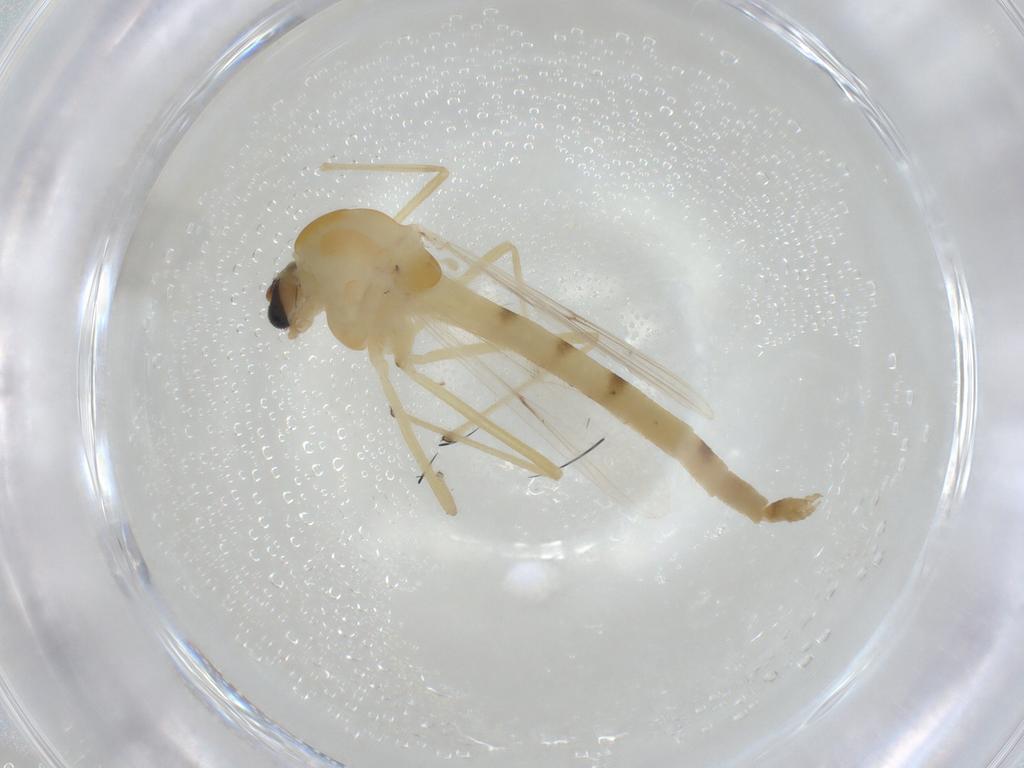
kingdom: Animalia
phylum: Arthropoda
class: Insecta
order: Diptera
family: Chironomidae
